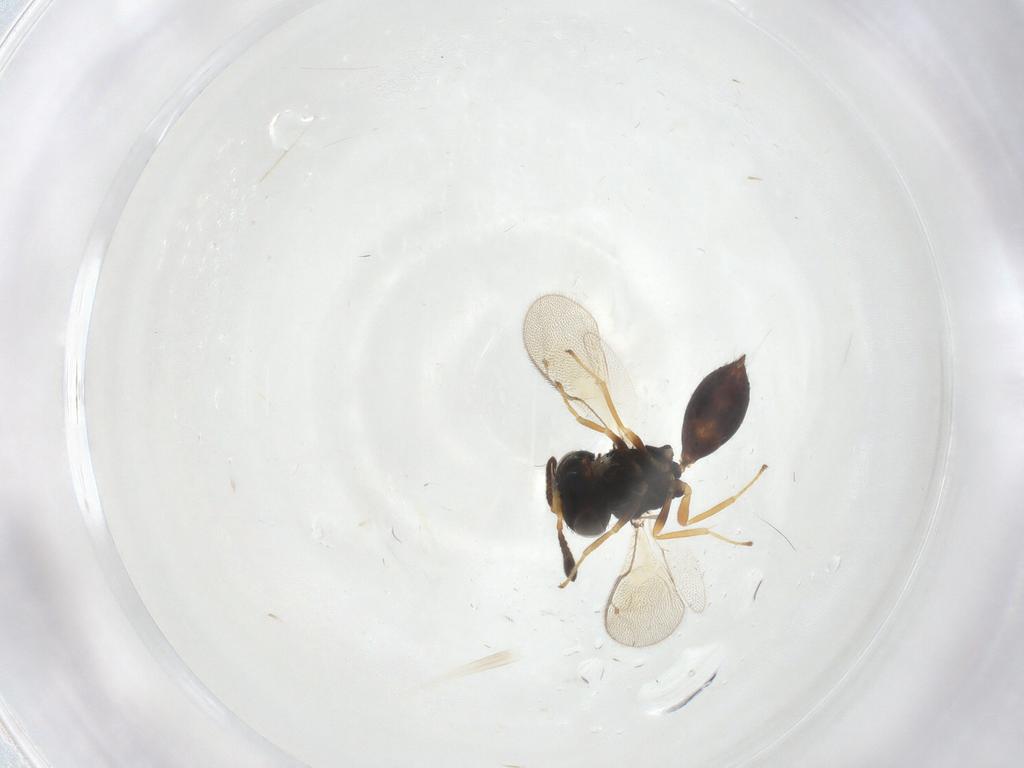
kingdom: Animalia
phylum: Arthropoda
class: Insecta
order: Hymenoptera
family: Pteromalidae
